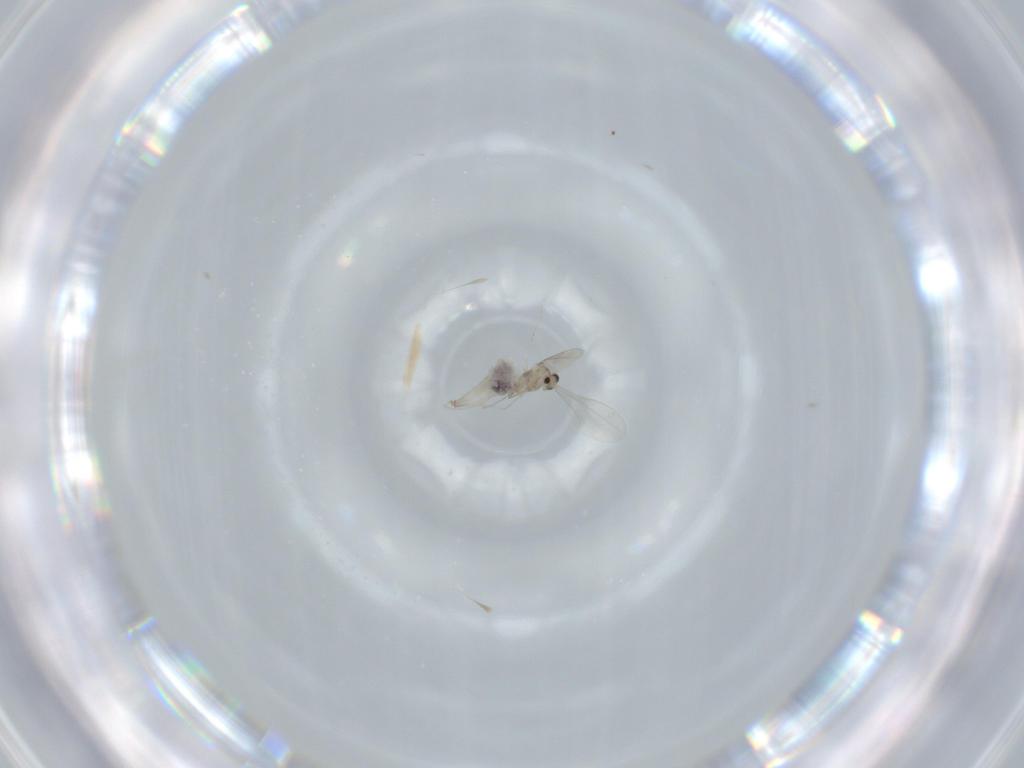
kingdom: Animalia
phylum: Arthropoda
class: Insecta
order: Diptera
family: Cecidomyiidae
